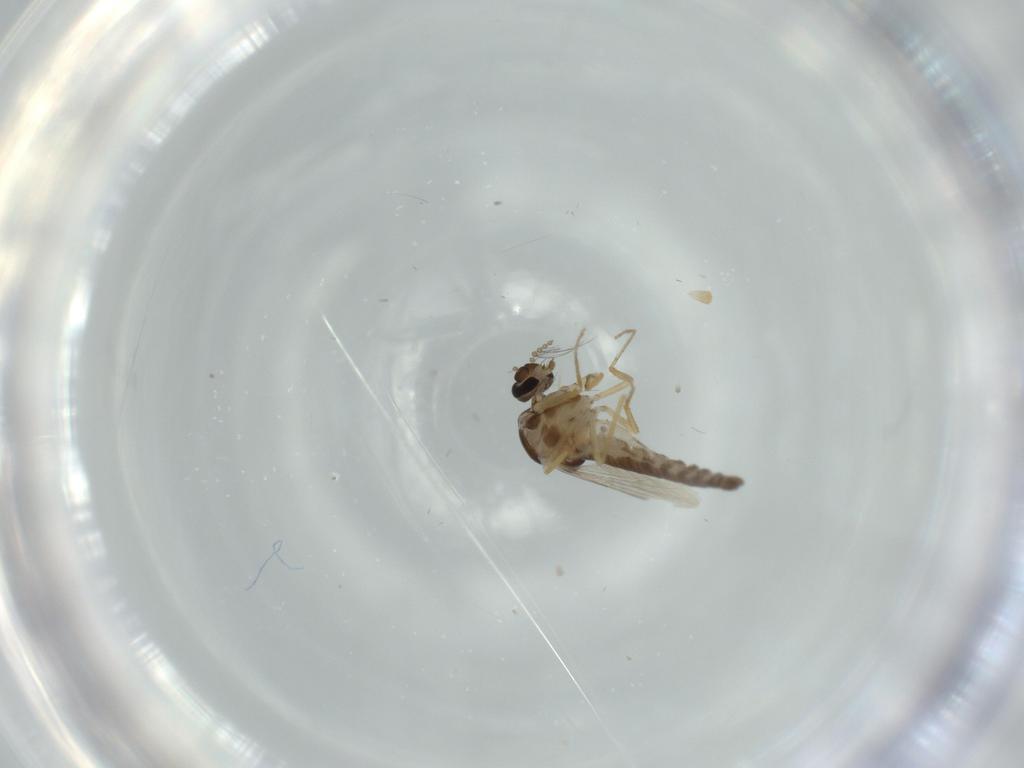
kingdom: Animalia
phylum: Arthropoda
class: Insecta
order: Diptera
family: Ceratopogonidae
